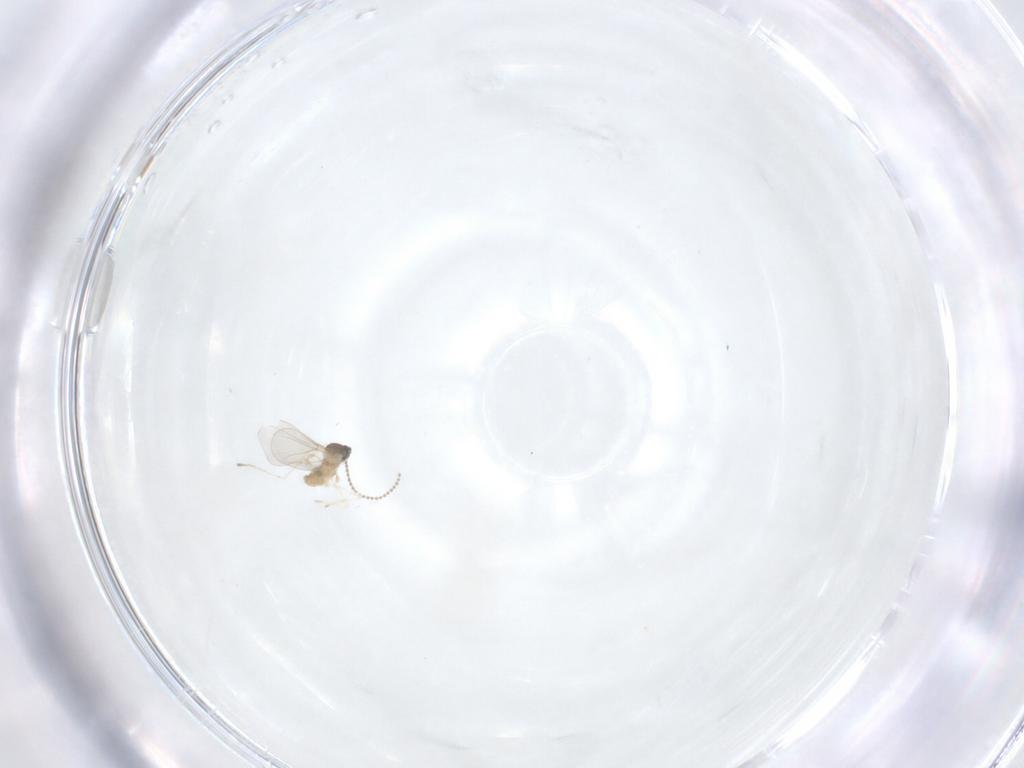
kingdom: Animalia
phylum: Arthropoda
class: Insecta
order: Diptera
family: Cecidomyiidae
